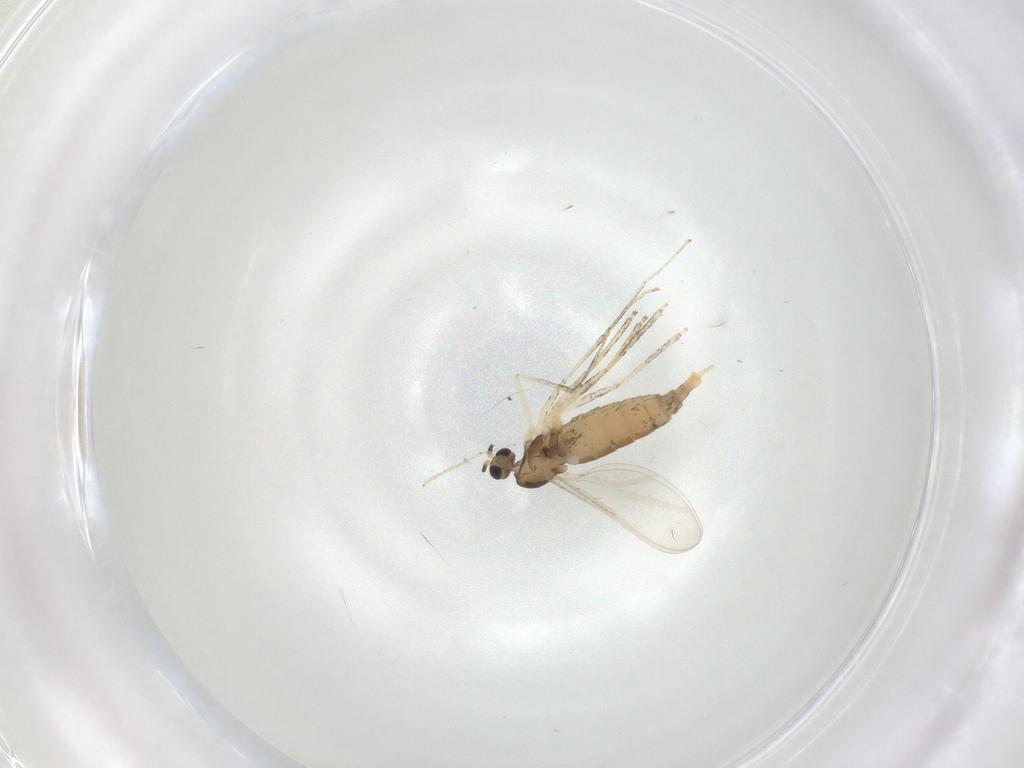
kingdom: Animalia
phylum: Arthropoda
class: Insecta
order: Diptera
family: Cecidomyiidae
